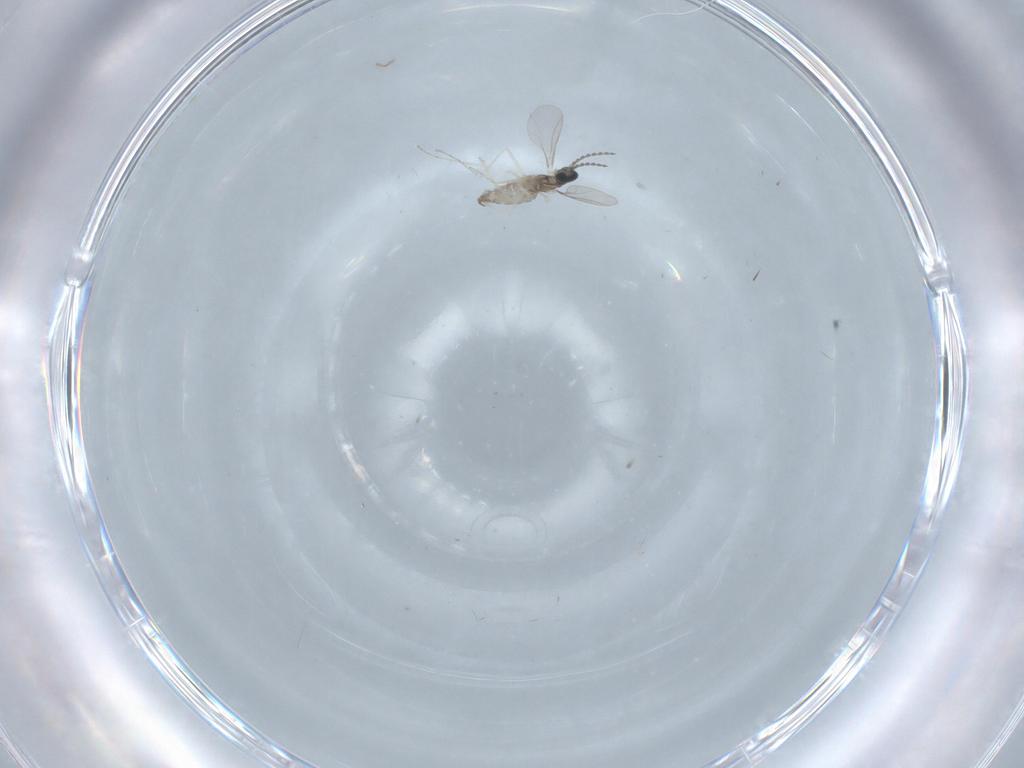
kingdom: Animalia
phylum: Arthropoda
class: Insecta
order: Diptera
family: Cecidomyiidae
